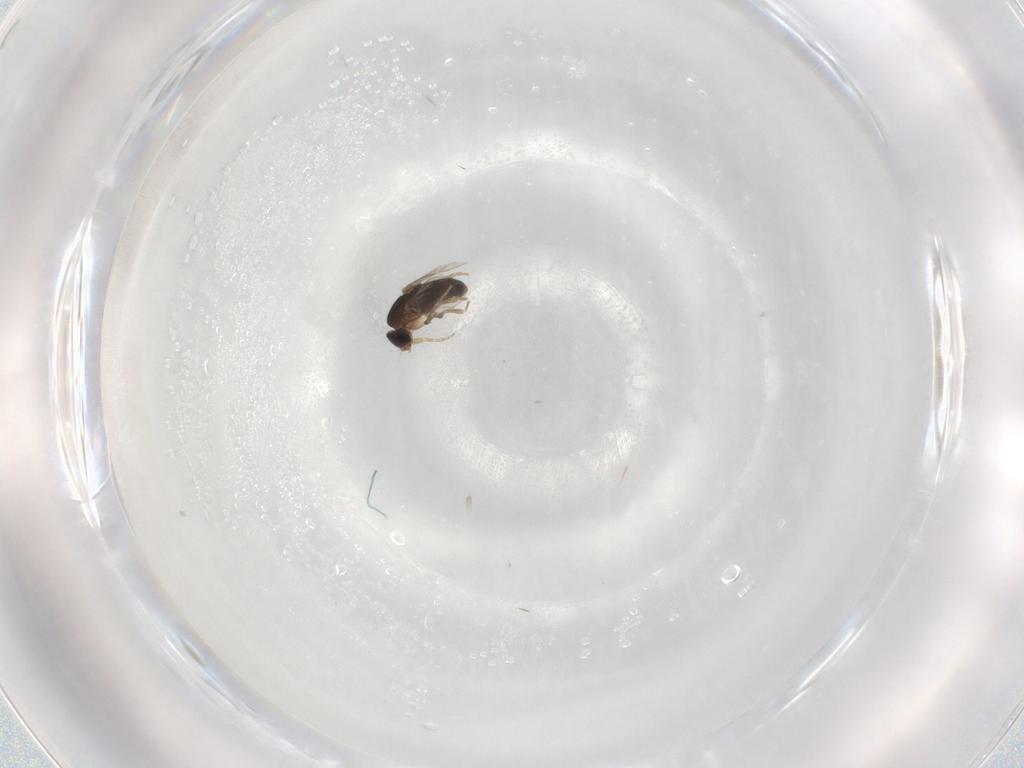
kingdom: Animalia
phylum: Arthropoda
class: Insecta
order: Diptera
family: Phoridae
